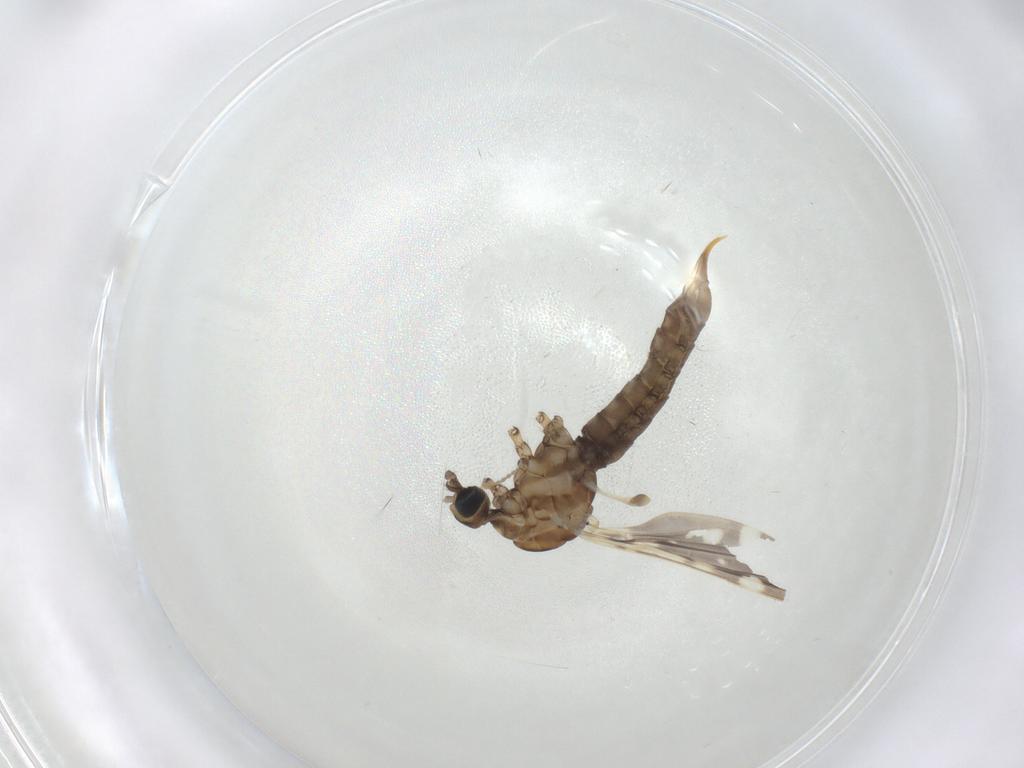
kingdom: Animalia
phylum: Arthropoda
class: Insecta
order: Diptera
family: Limoniidae
